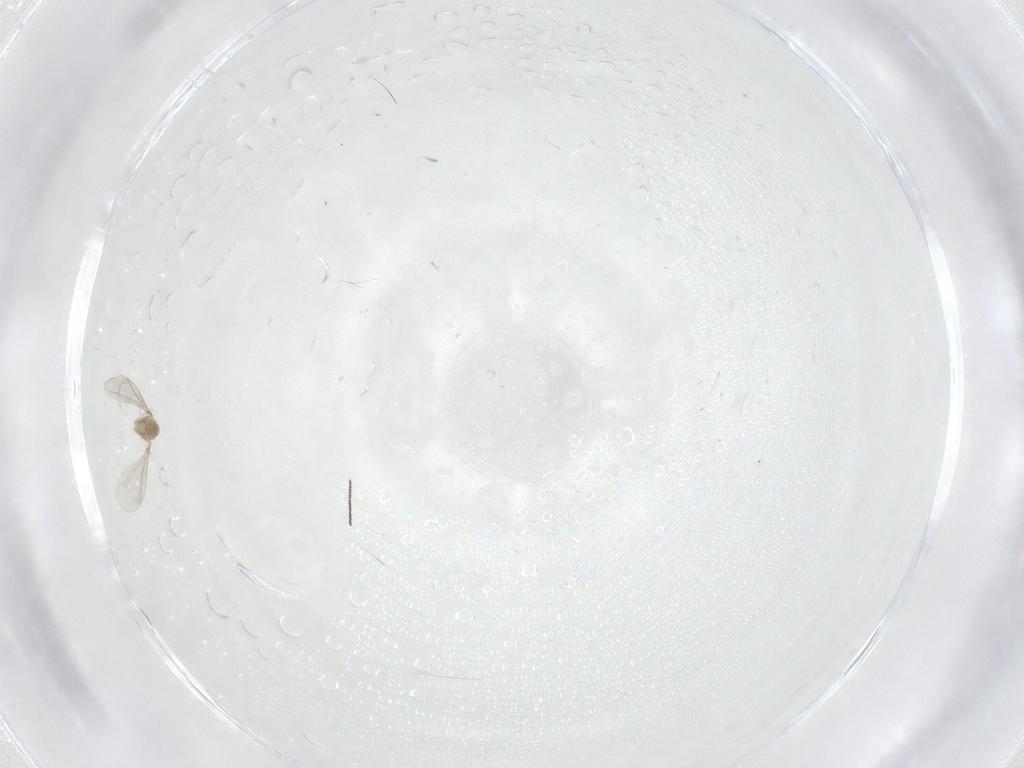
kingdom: Animalia
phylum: Arthropoda
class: Insecta
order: Diptera
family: Cecidomyiidae
